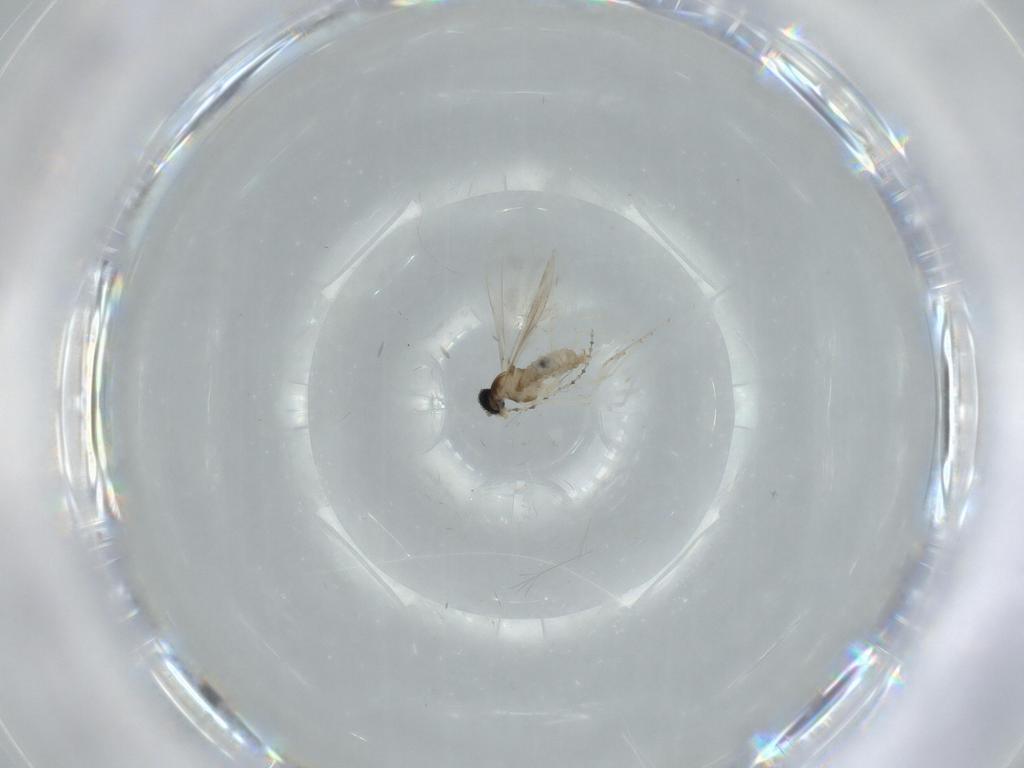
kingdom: Animalia
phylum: Arthropoda
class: Insecta
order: Diptera
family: Cecidomyiidae
